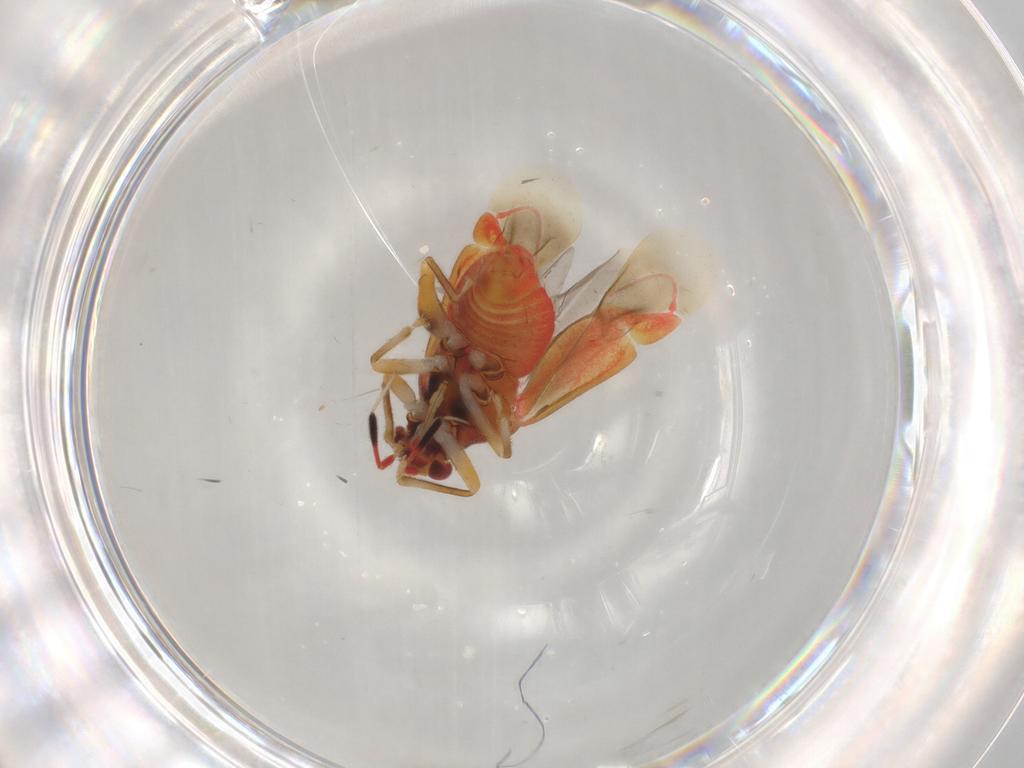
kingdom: Animalia
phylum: Arthropoda
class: Insecta
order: Hemiptera
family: Miridae
